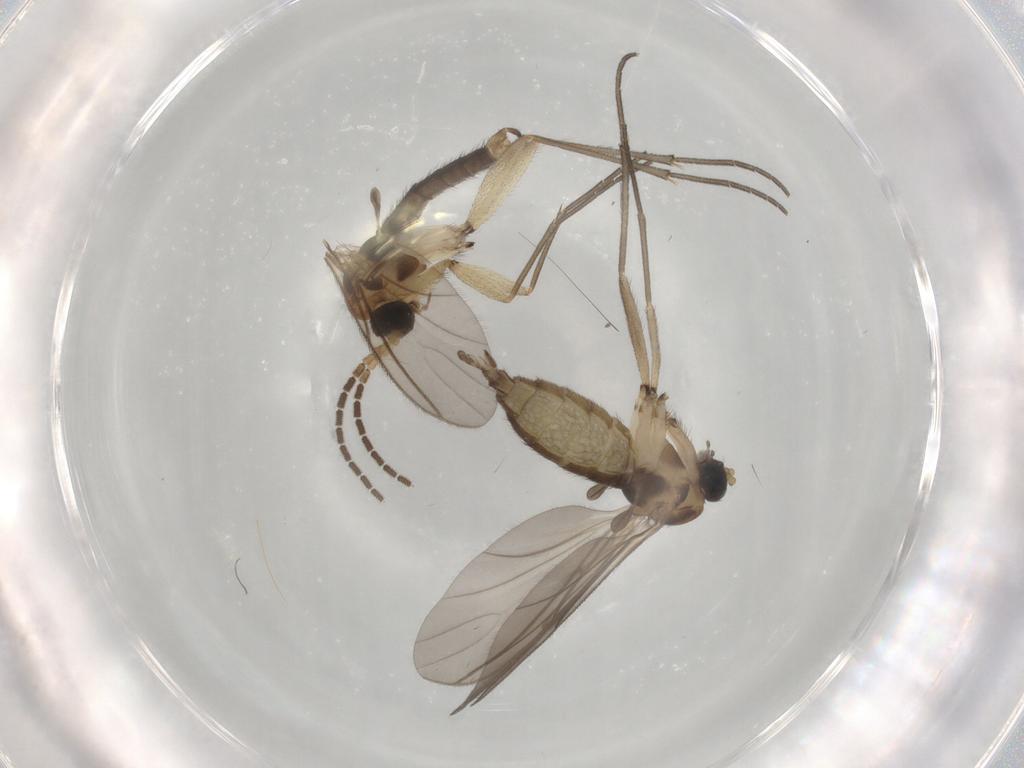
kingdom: Animalia
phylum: Arthropoda
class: Insecta
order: Diptera
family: Sciaridae
